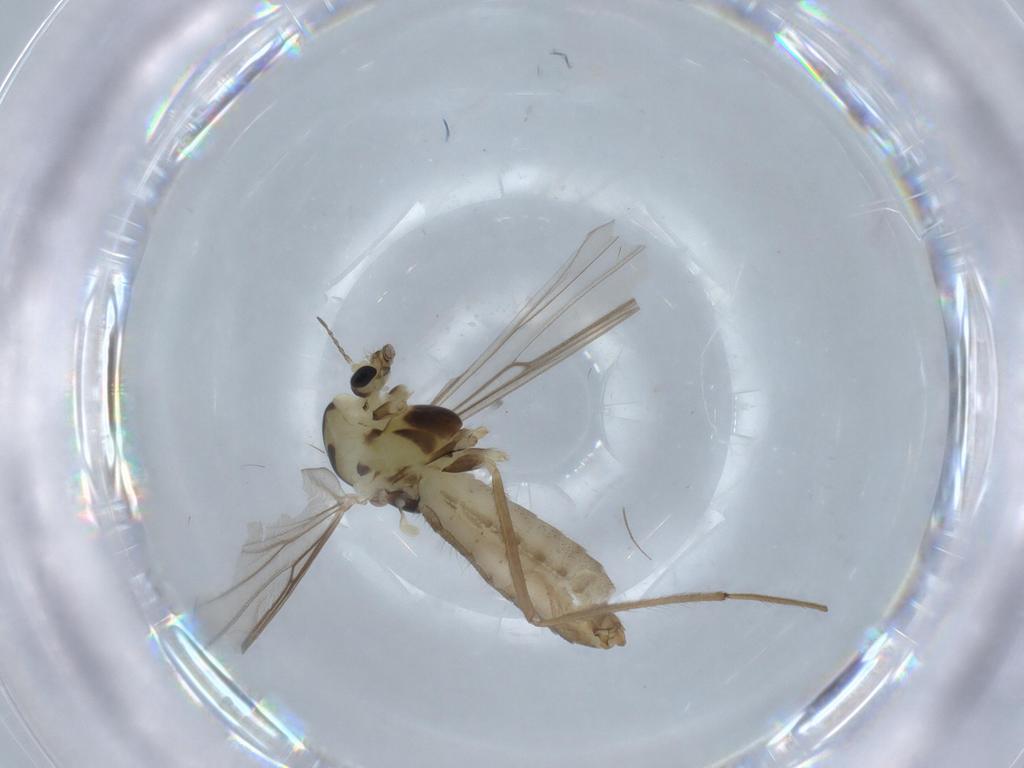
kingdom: Animalia
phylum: Arthropoda
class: Insecta
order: Diptera
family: Chironomidae
